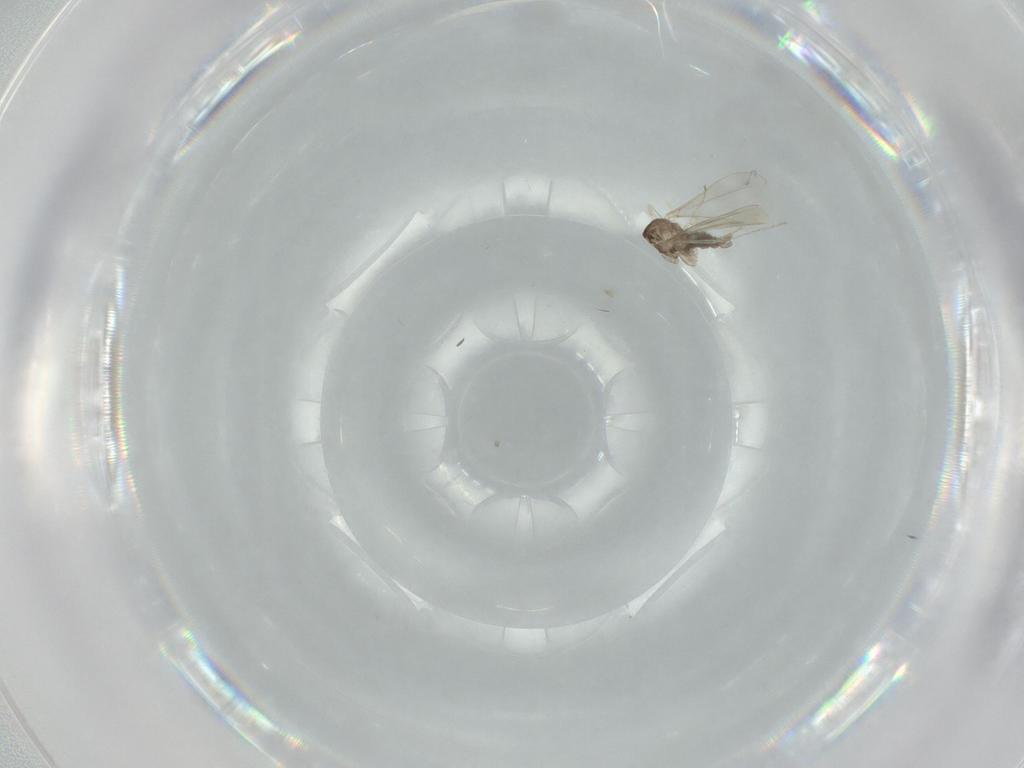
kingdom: Animalia
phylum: Arthropoda
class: Insecta
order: Diptera
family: Cecidomyiidae
